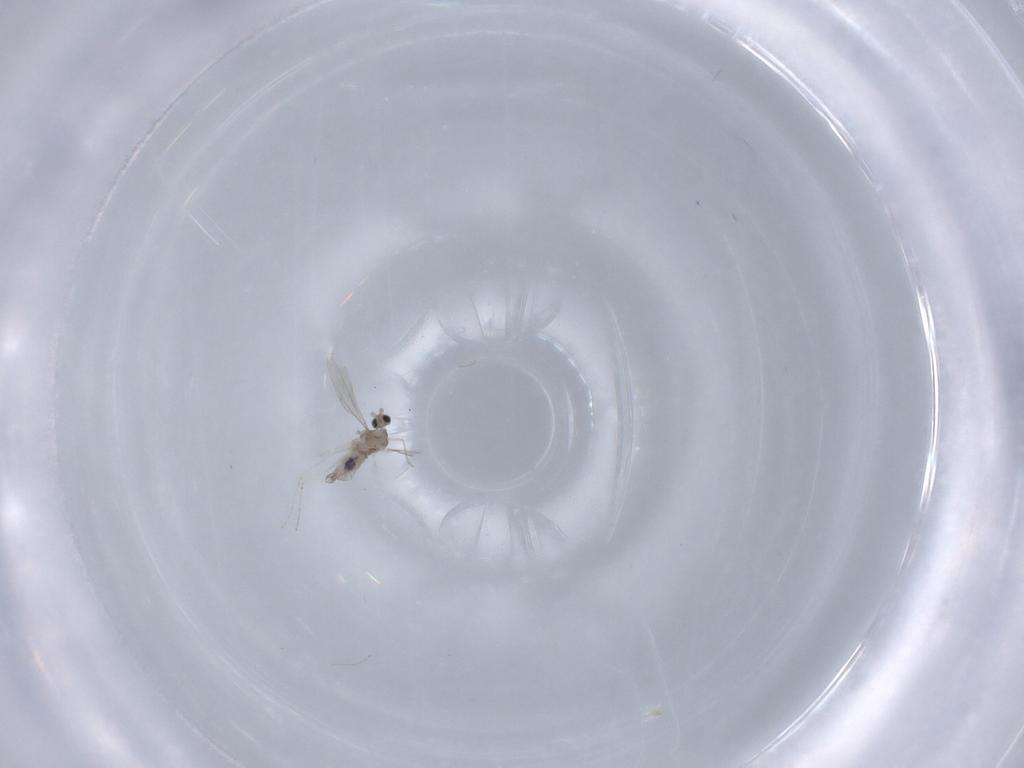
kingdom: Animalia
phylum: Arthropoda
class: Insecta
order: Diptera
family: Cecidomyiidae
